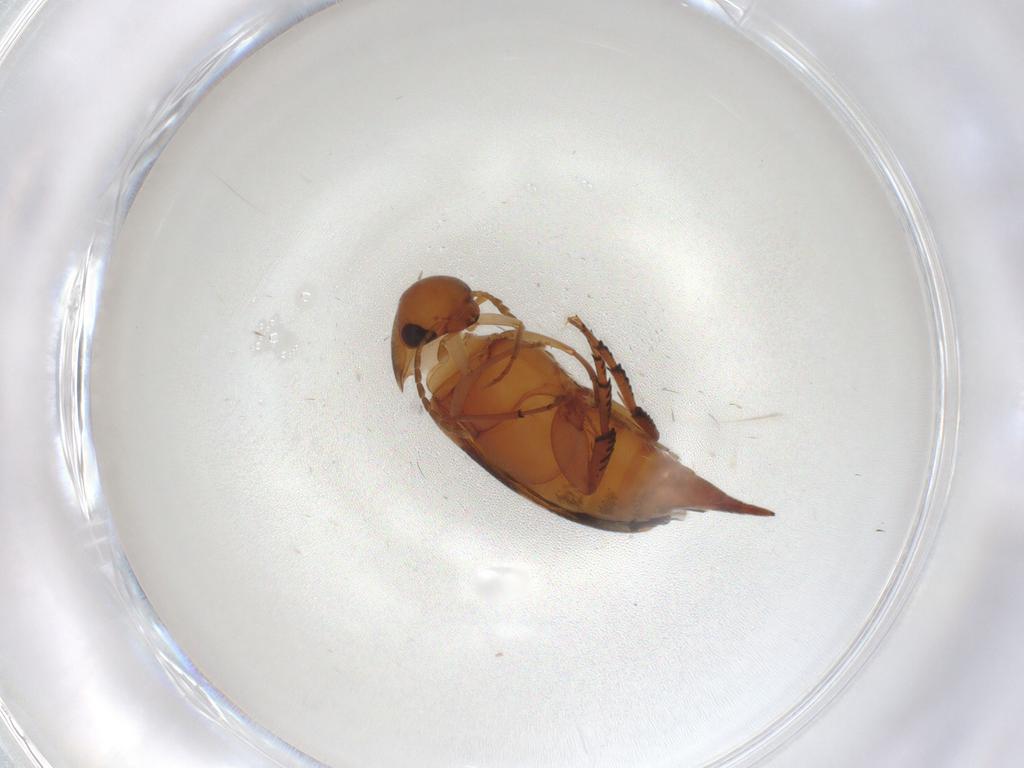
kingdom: Animalia
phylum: Arthropoda
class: Insecta
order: Coleoptera
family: Mordellidae
